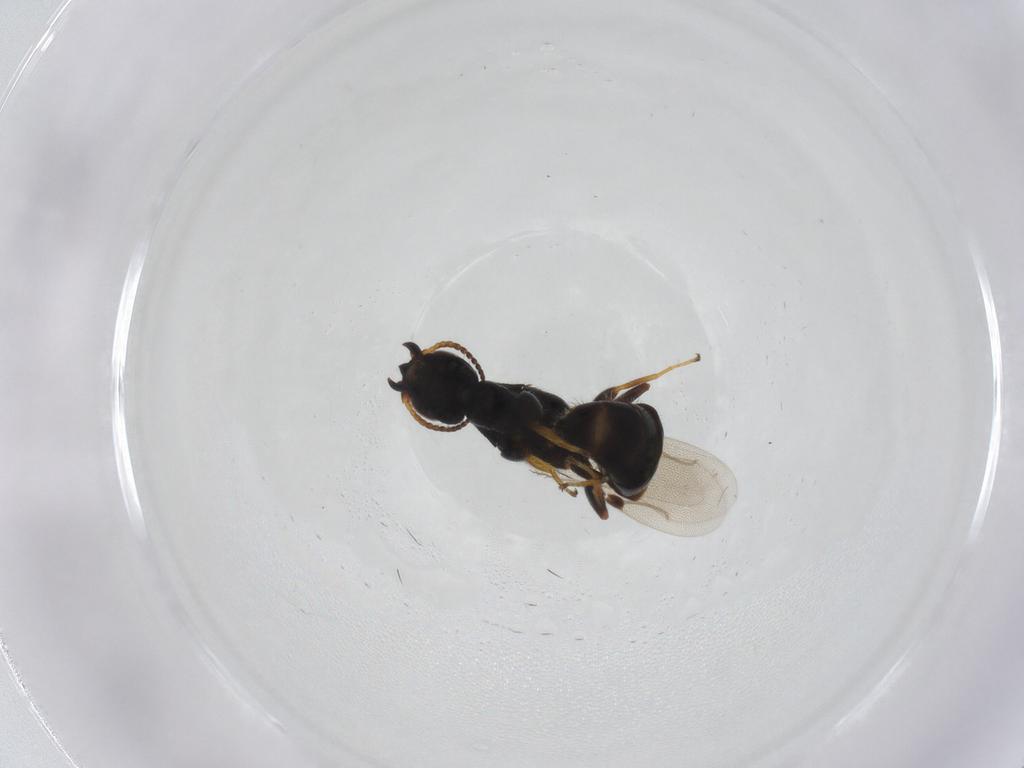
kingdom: Animalia
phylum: Arthropoda
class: Insecta
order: Hymenoptera
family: Bethylidae
